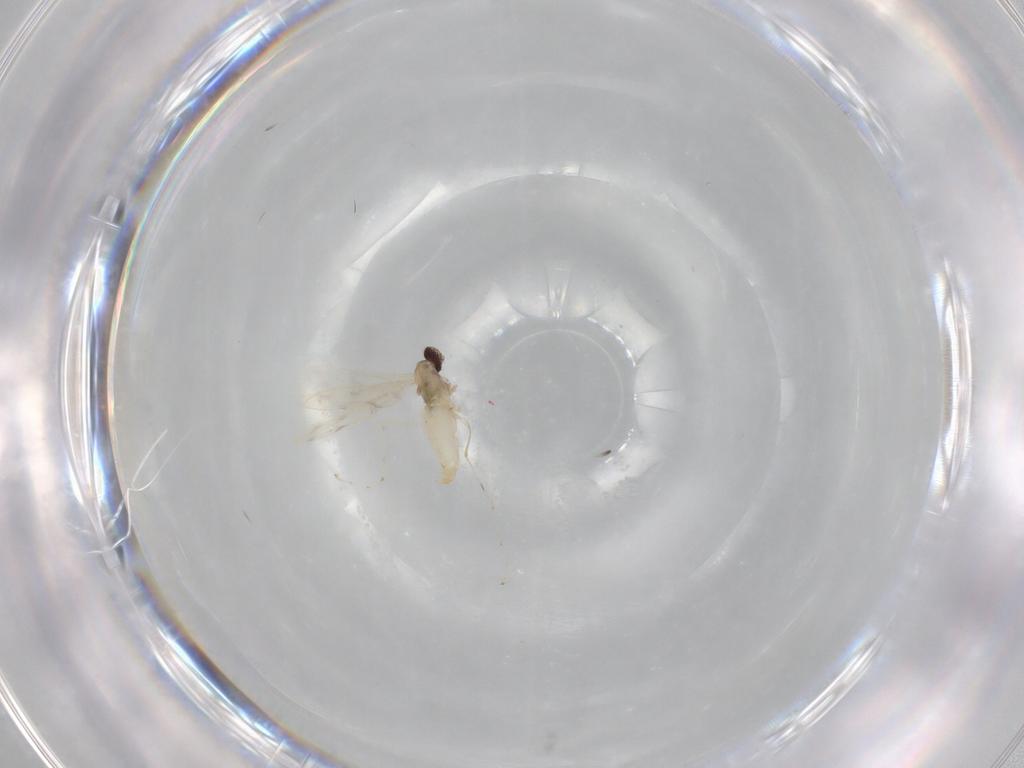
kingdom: Animalia
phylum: Arthropoda
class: Insecta
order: Diptera
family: Cecidomyiidae
